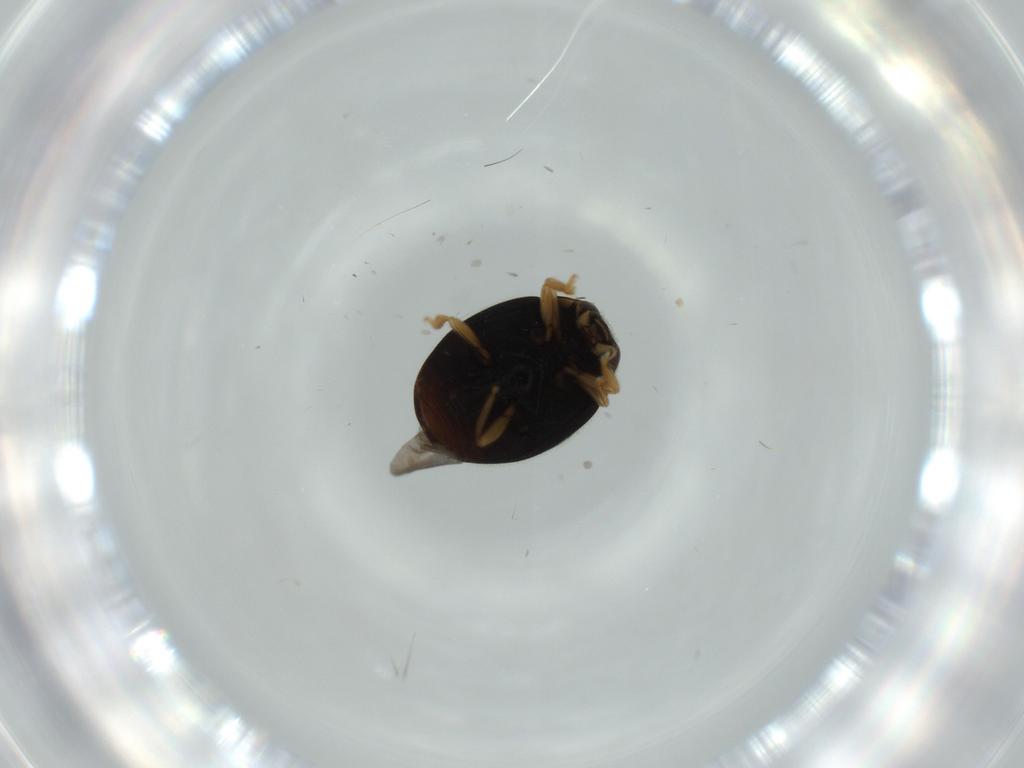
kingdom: Animalia
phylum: Arthropoda
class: Insecta
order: Coleoptera
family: Coccinellidae
